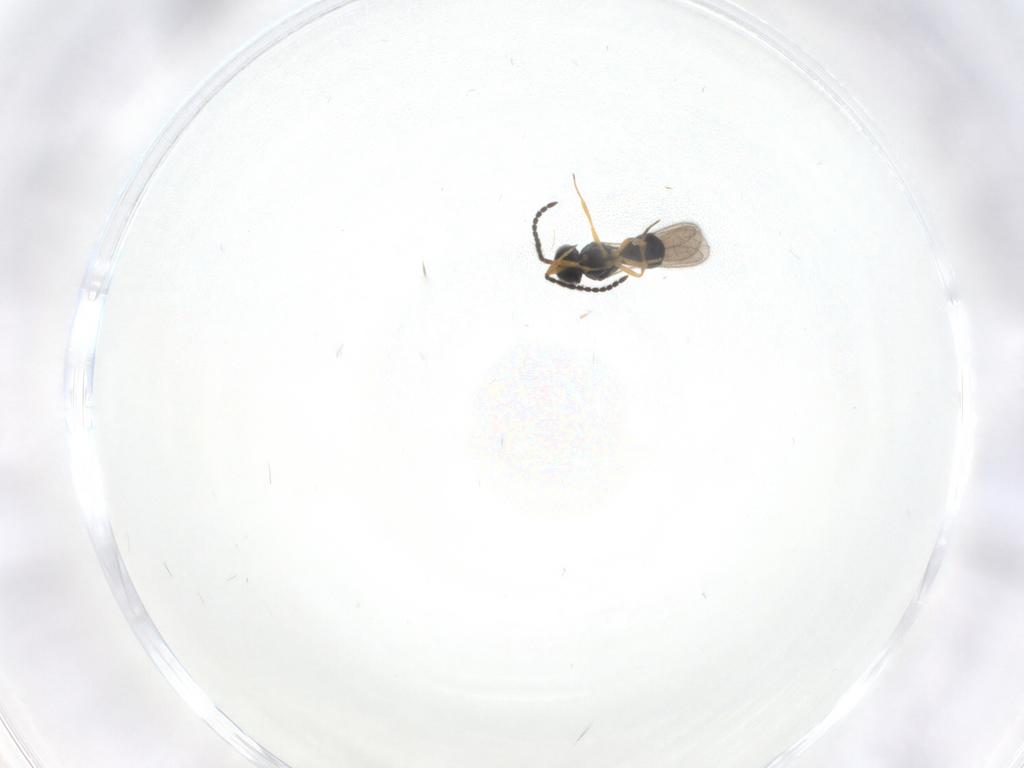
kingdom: Animalia
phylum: Arthropoda
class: Insecta
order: Hymenoptera
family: Scelionidae
